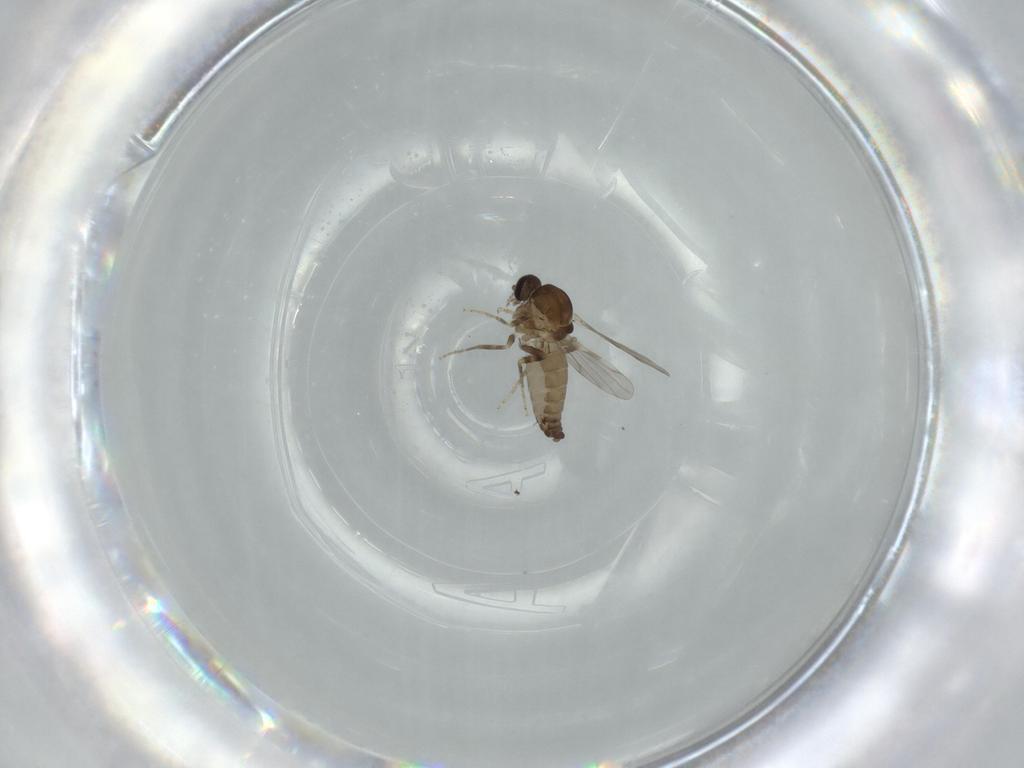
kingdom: Animalia
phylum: Arthropoda
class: Insecta
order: Diptera
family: Ceratopogonidae
